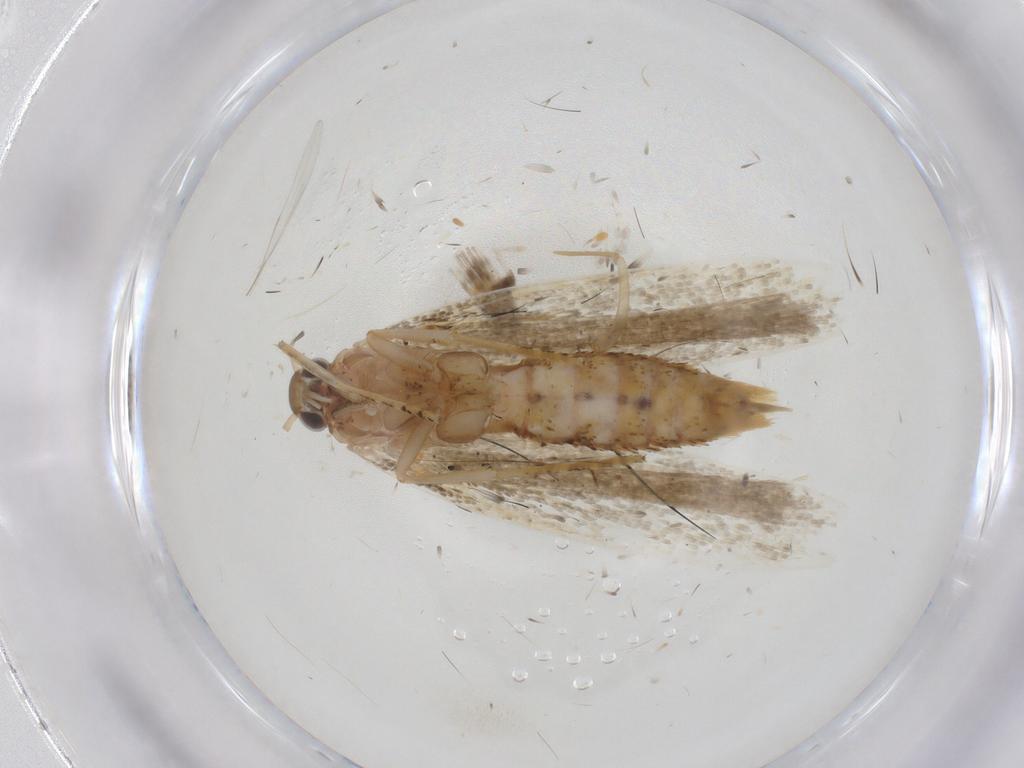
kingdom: Animalia
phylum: Arthropoda
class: Insecta
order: Lepidoptera
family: Crambidae
